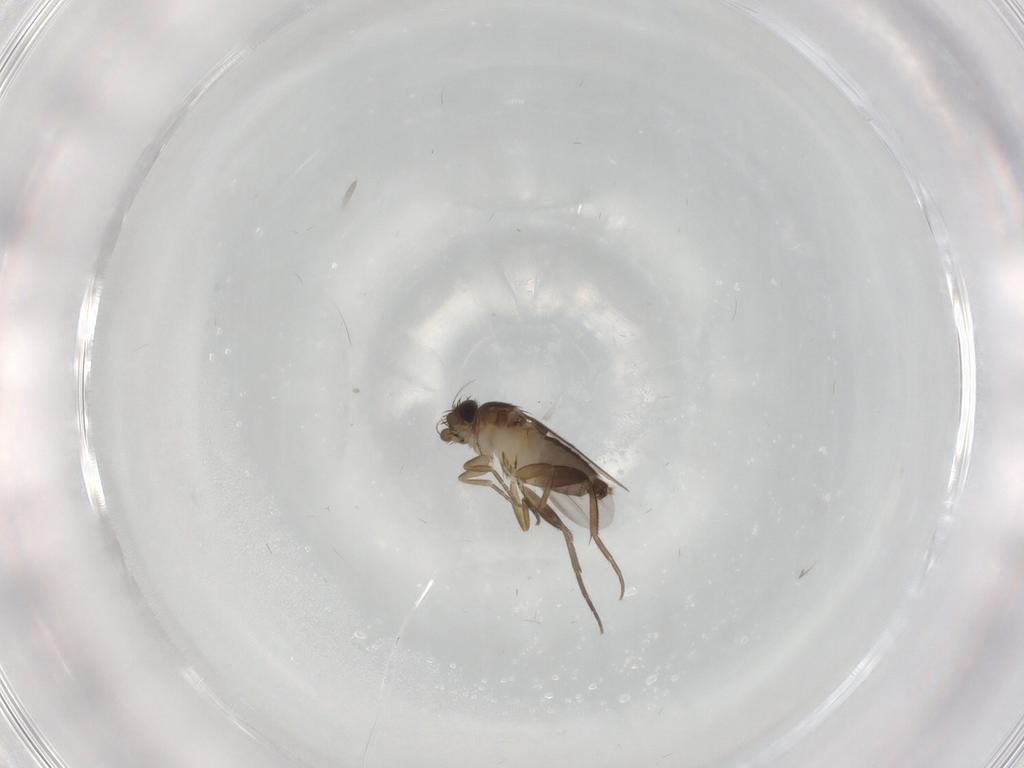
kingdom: Animalia
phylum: Arthropoda
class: Insecta
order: Diptera
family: Phoridae
